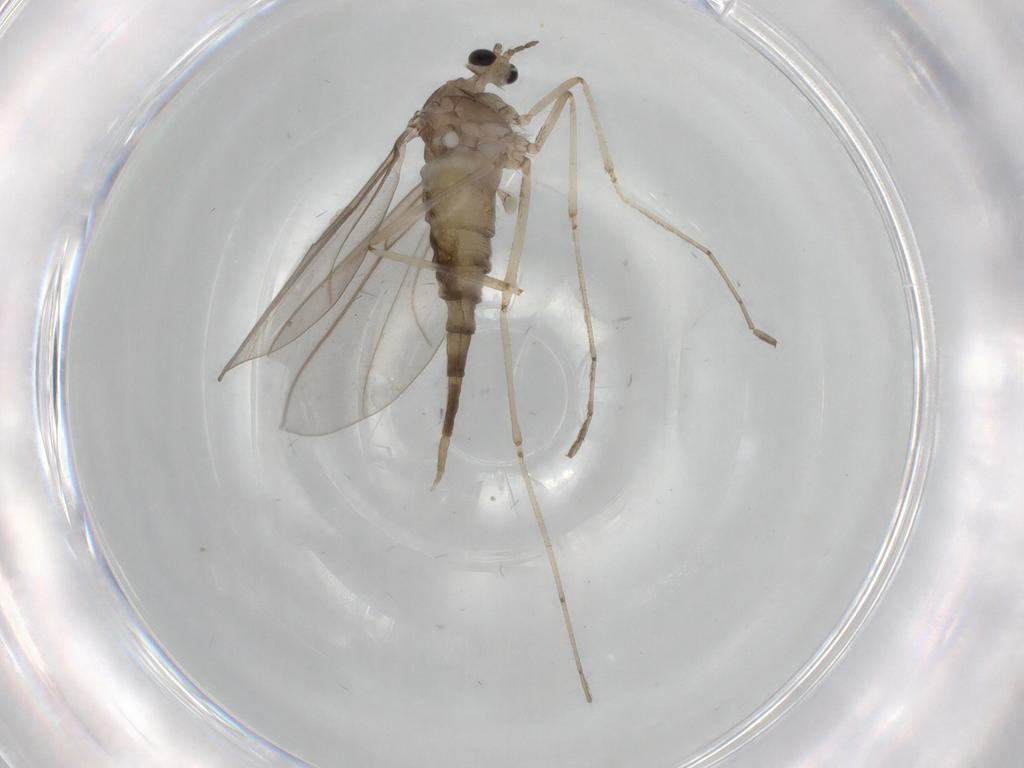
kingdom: Animalia
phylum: Arthropoda
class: Insecta
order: Diptera
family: Cecidomyiidae
